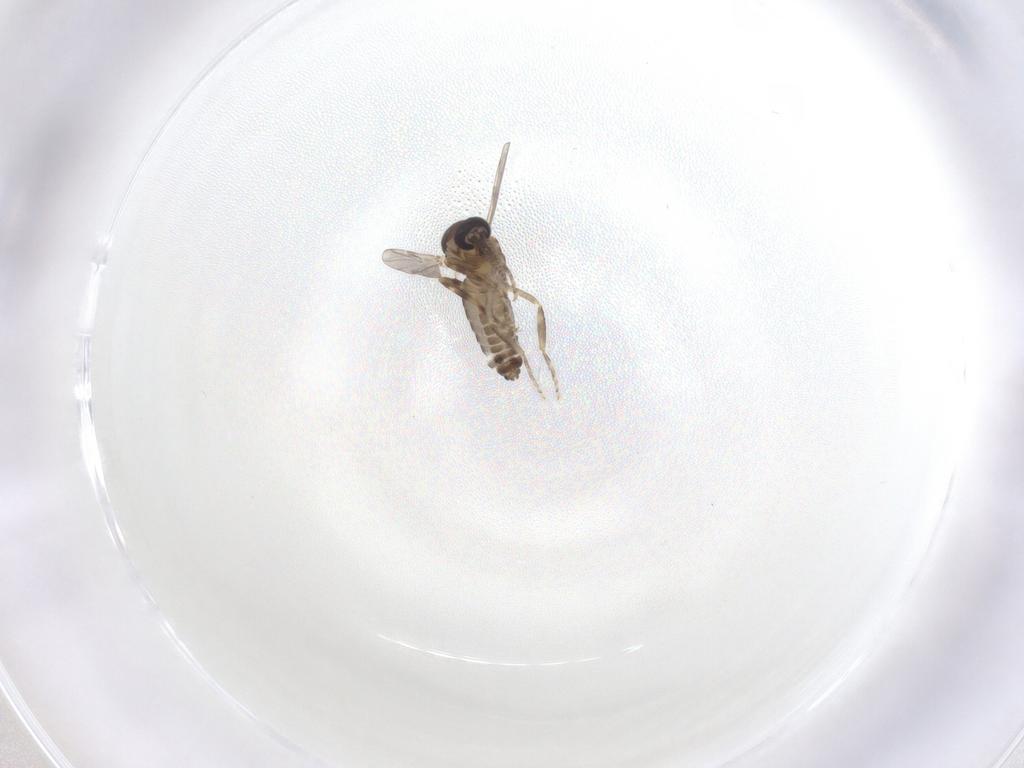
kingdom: Animalia
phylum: Arthropoda
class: Insecta
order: Diptera
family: Ceratopogonidae
